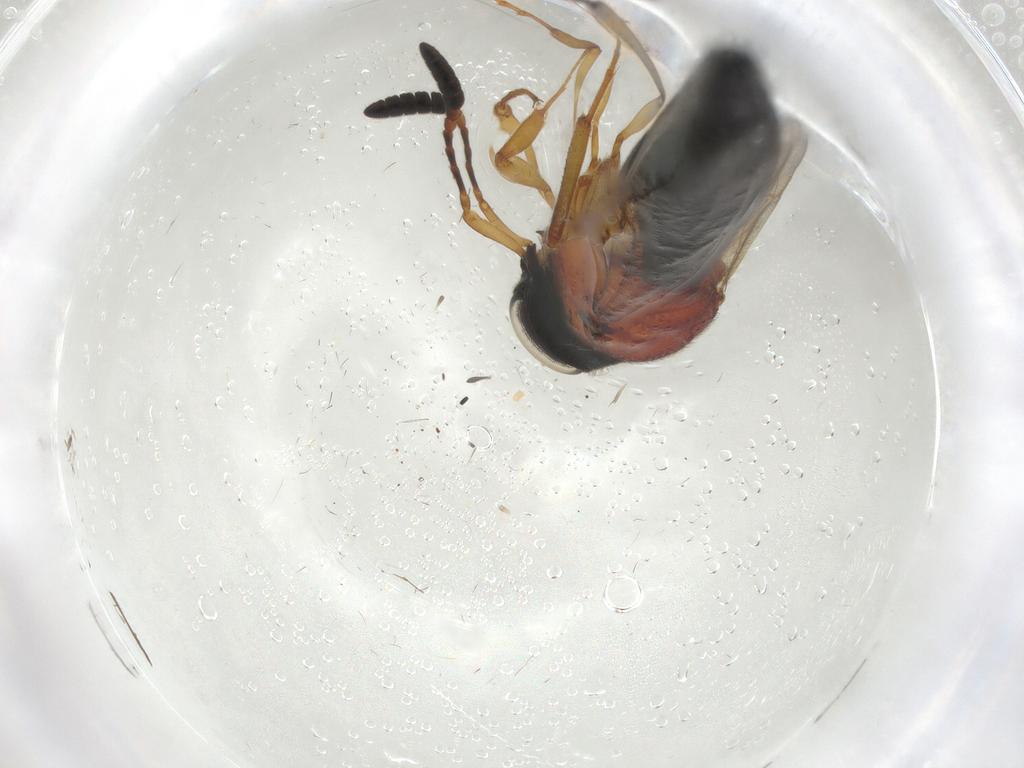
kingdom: Animalia
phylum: Arthropoda
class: Insecta
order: Hymenoptera
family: Scelionidae
